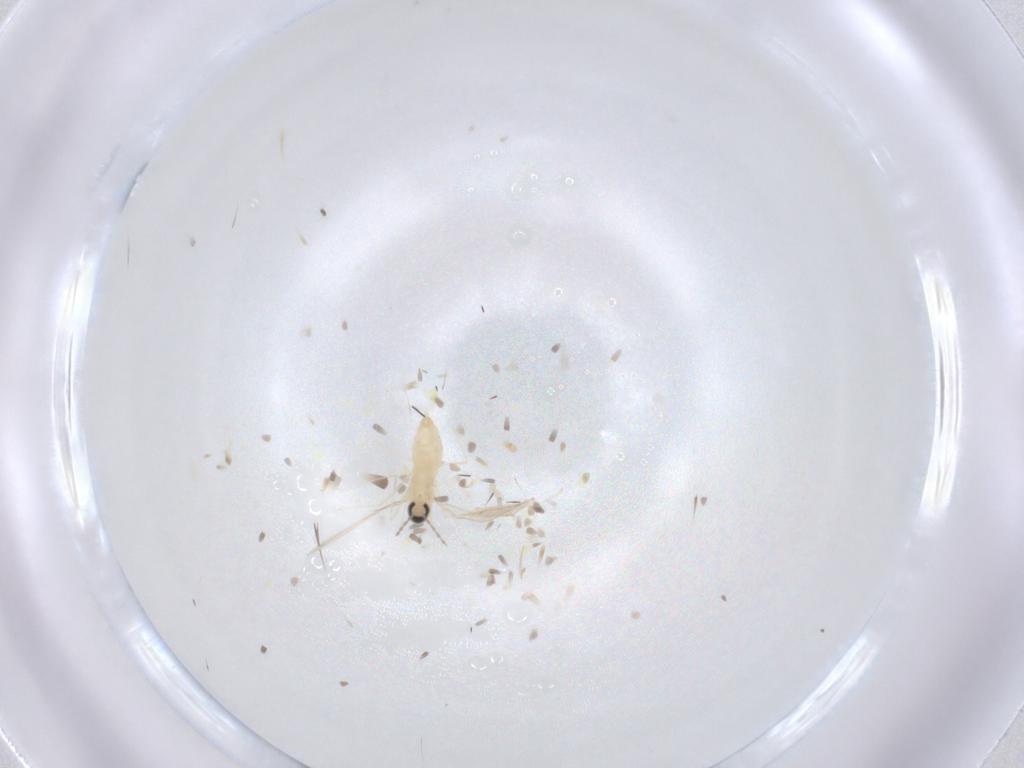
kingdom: Animalia
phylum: Arthropoda
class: Insecta
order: Diptera
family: Cecidomyiidae
